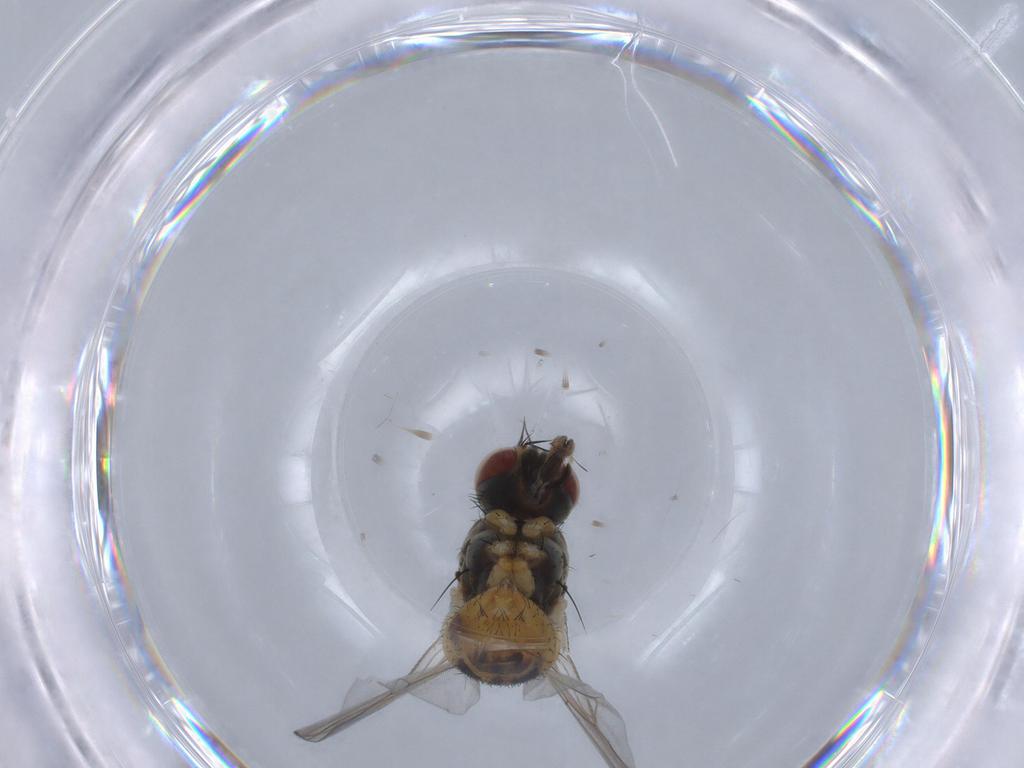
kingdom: Animalia
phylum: Arthropoda
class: Insecta
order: Diptera
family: Muscidae
